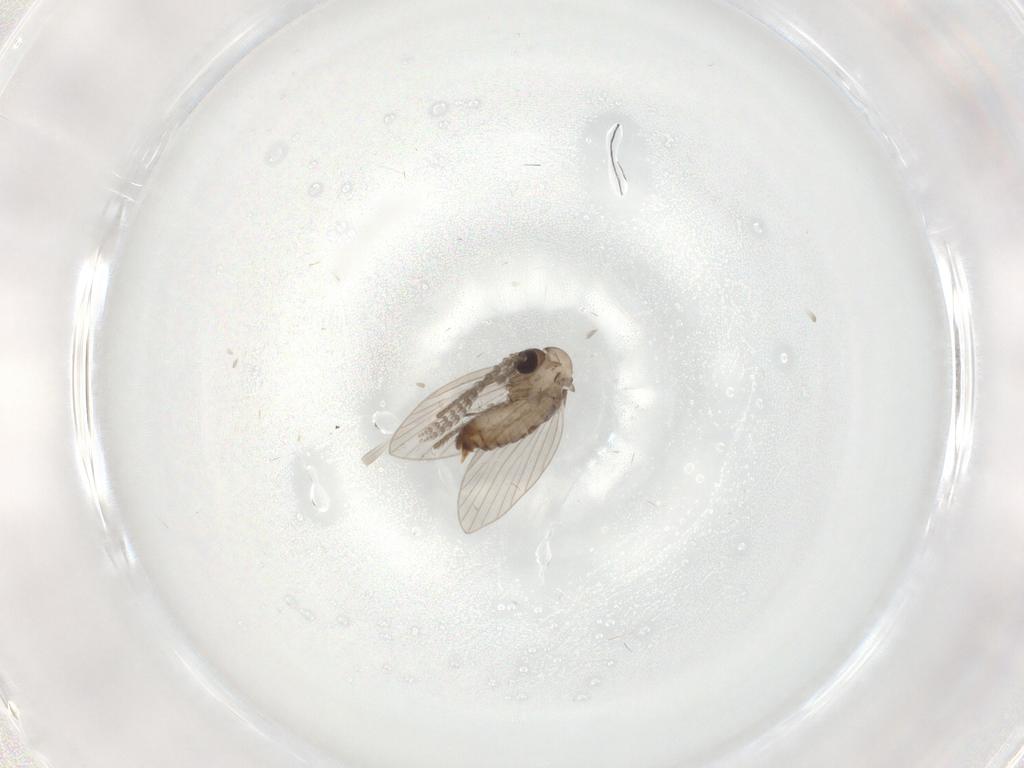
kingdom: Animalia
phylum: Arthropoda
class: Insecta
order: Diptera
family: Psychodidae
